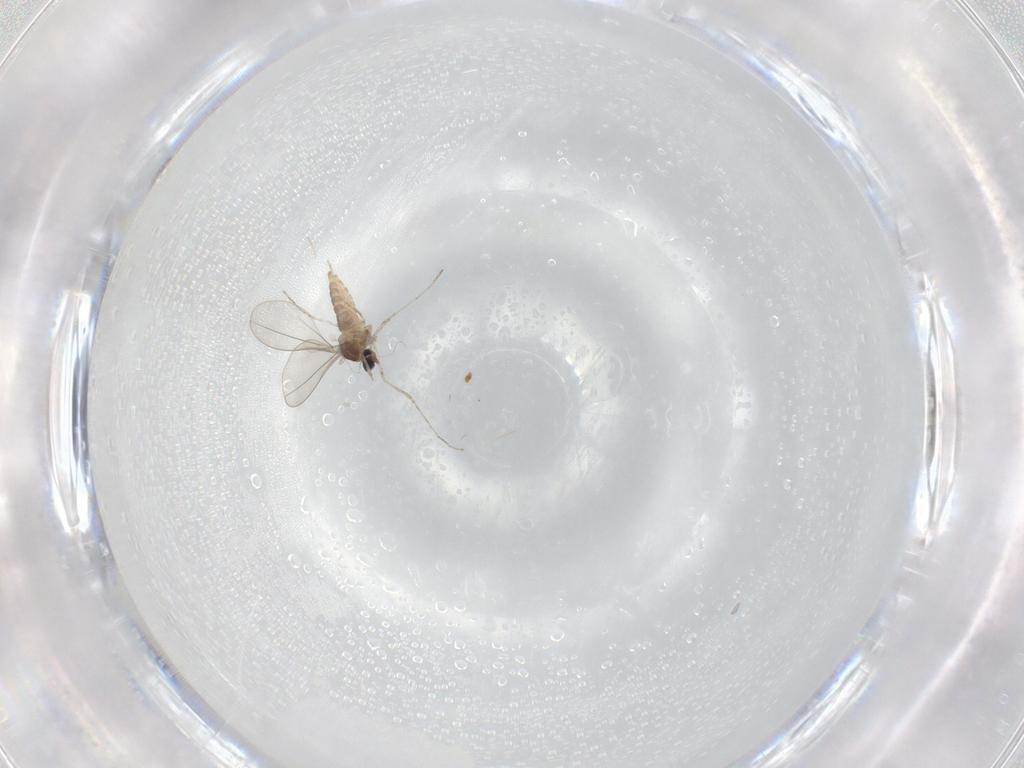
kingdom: Animalia
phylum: Arthropoda
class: Insecta
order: Diptera
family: Cecidomyiidae
